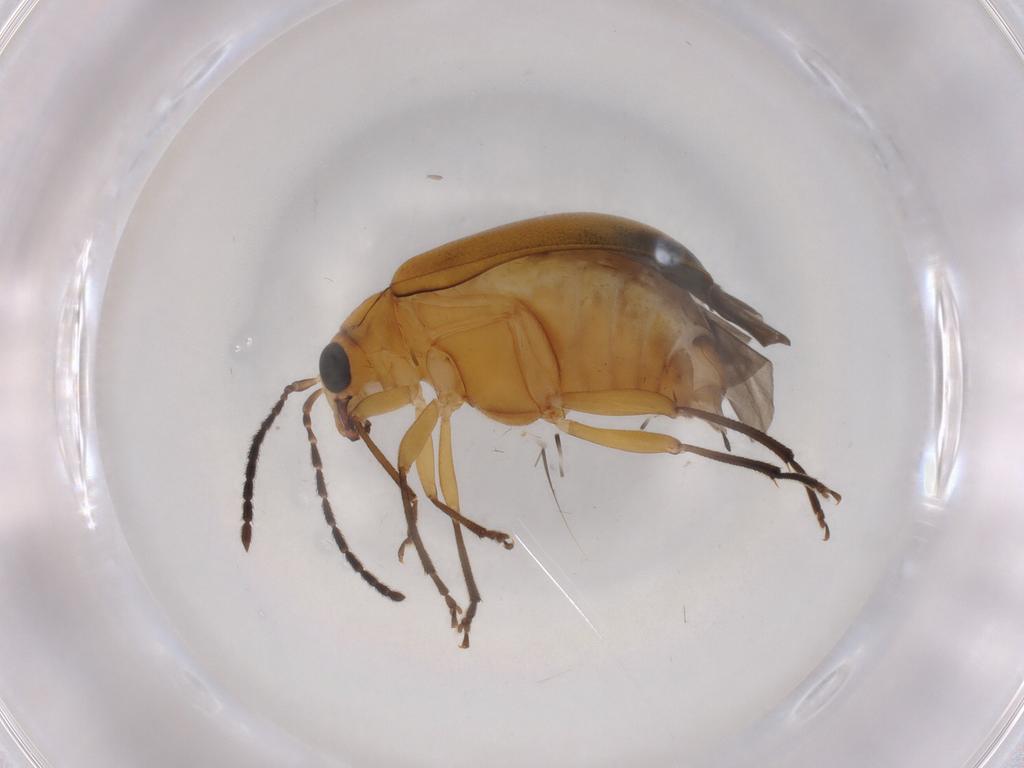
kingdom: Animalia
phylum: Arthropoda
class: Insecta
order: Coleoptera
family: Chrysomelidae
